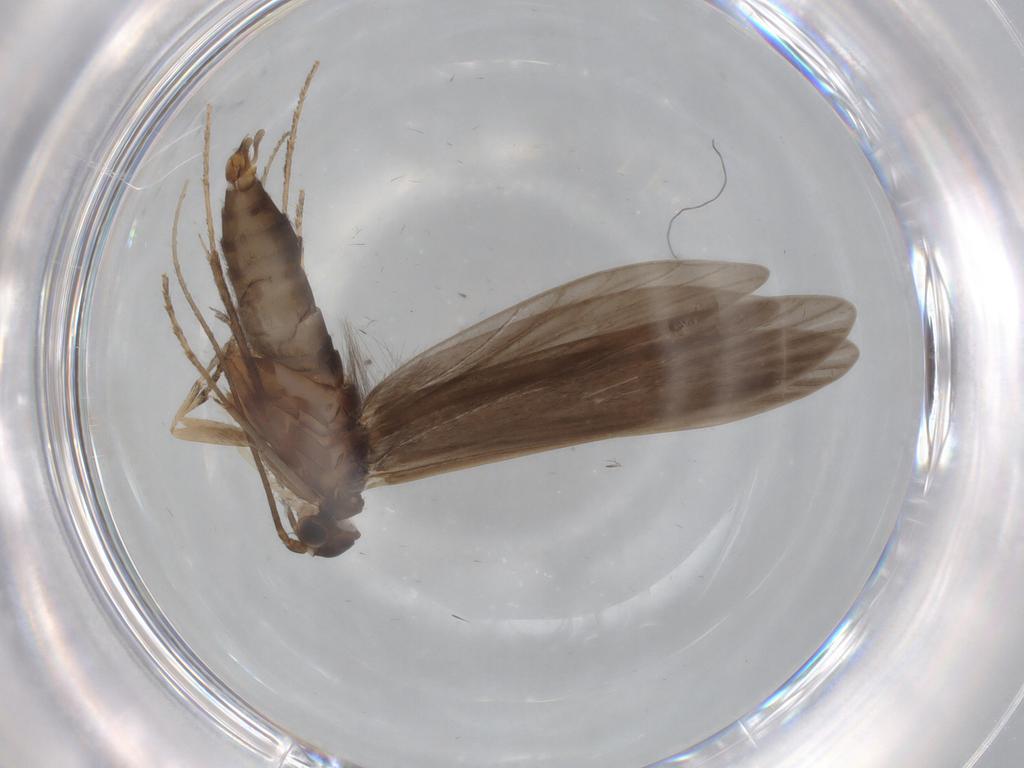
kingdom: Animalia
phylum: Arthropoda
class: Insecta
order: Trichoptera
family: Xiphocentronidae
